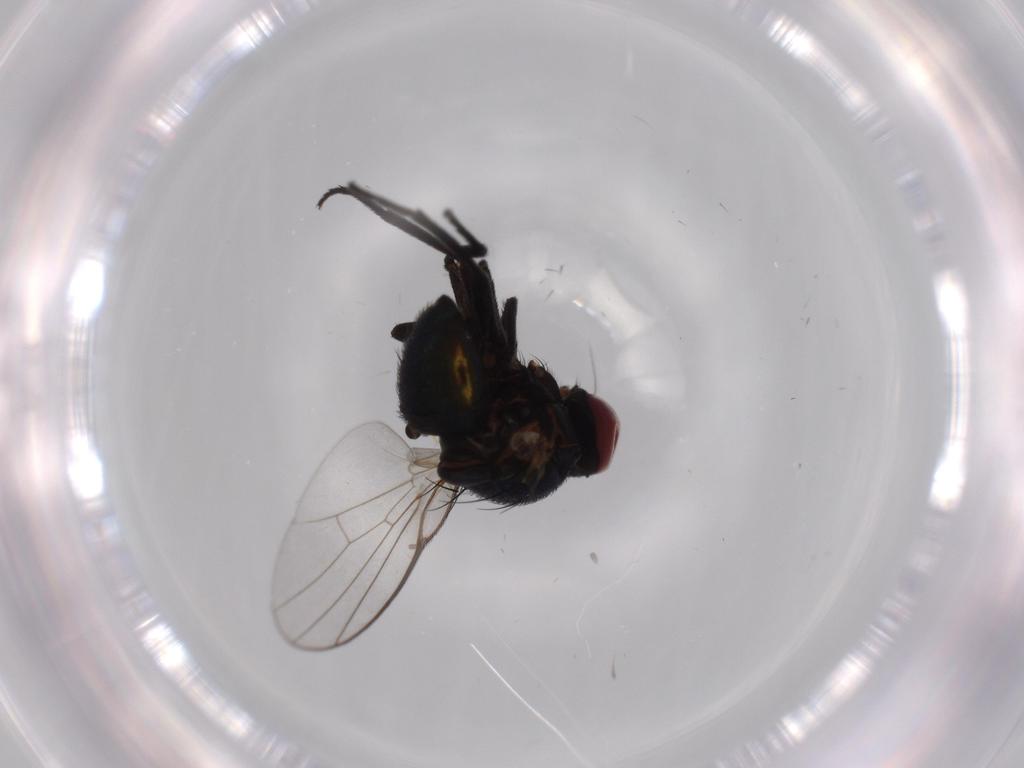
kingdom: Animalia
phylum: Arthropoda
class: Insecta
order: Diptera
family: Agromyzidae
